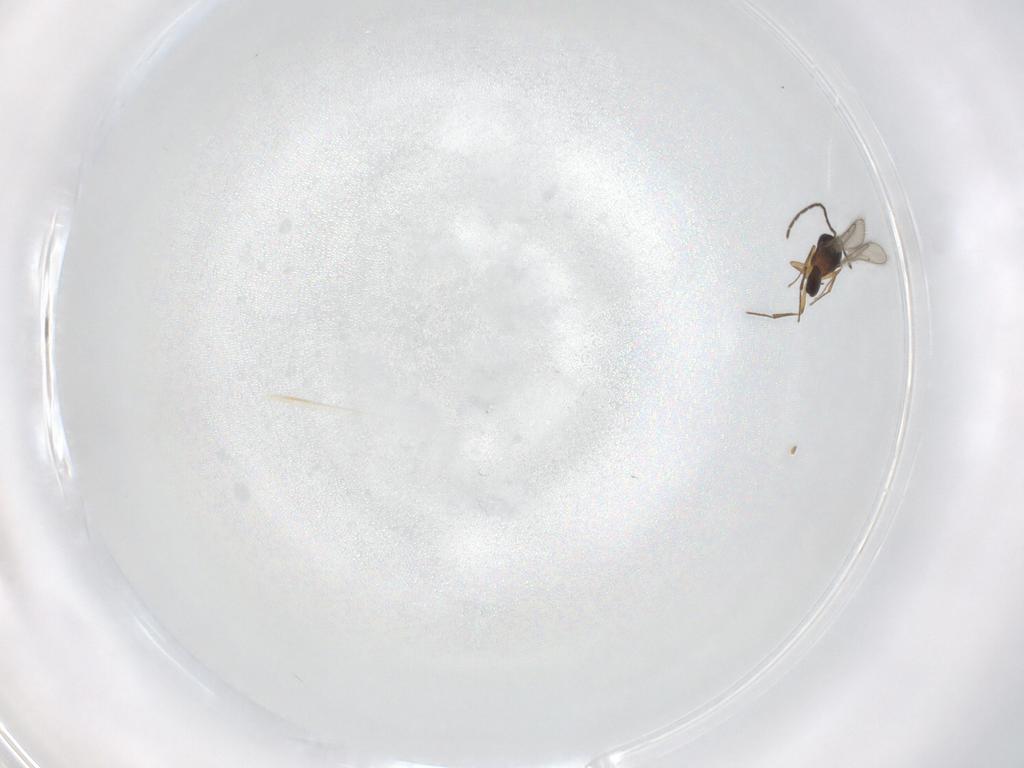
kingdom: Animalia
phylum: Arthropoda
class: Insecta
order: Hymenoptera
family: Scelionidae
